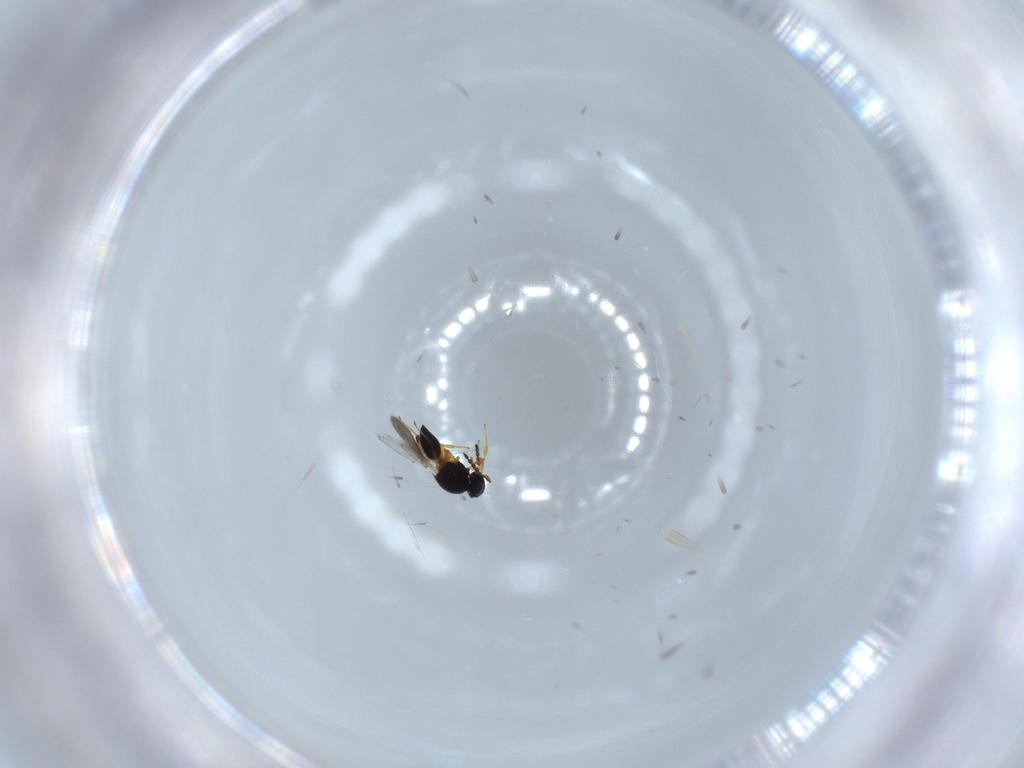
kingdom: Animalia
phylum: Arthropoda
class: Insecta
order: Hymenoptera
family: Platygastridae
